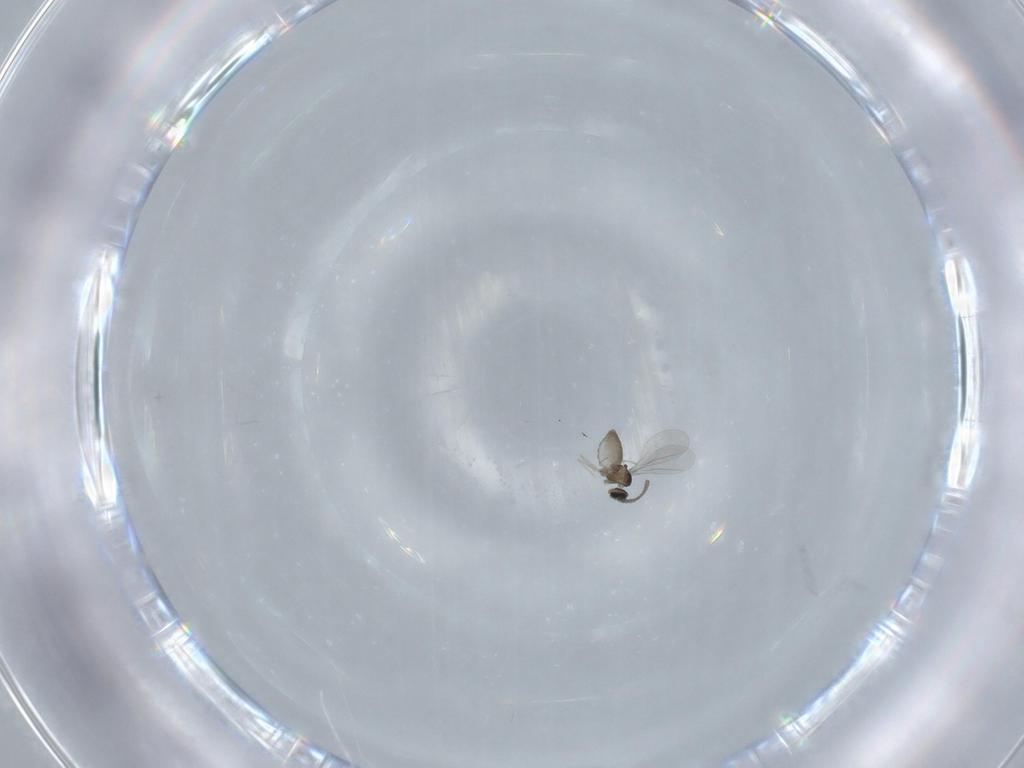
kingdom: Animalia
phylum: Arthropoda
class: Insecta
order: Diptera
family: Cecidomyiidae
